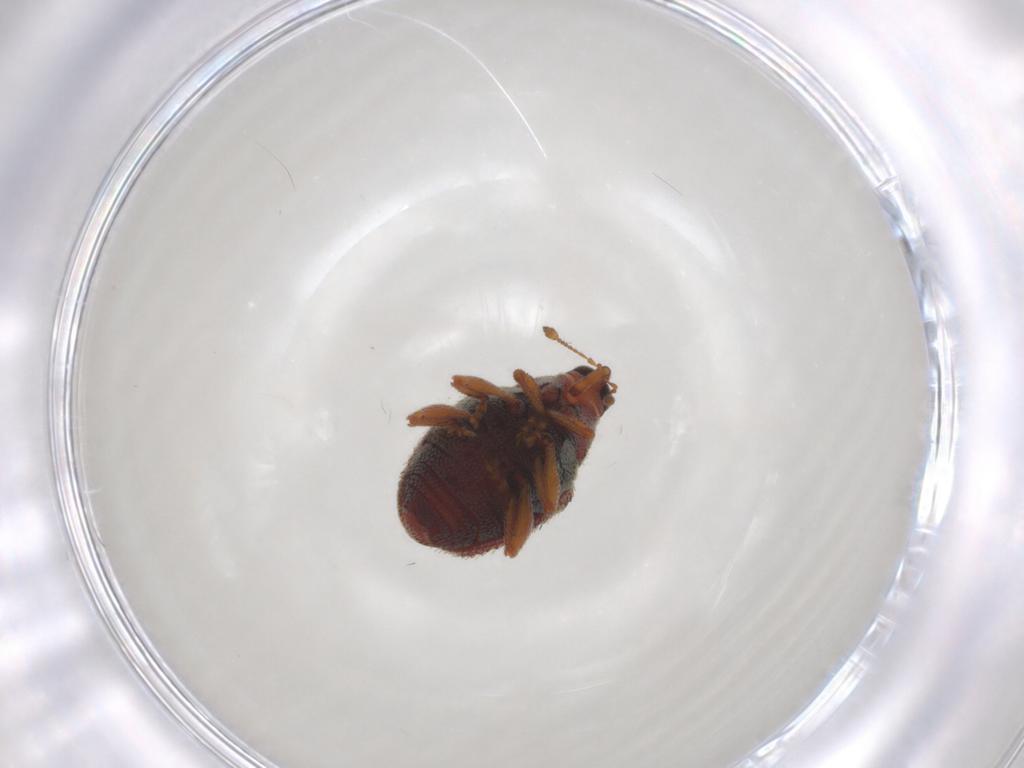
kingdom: Animalia
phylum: Arthropoda
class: Insecta
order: Coleoptera
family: Curculionidae
